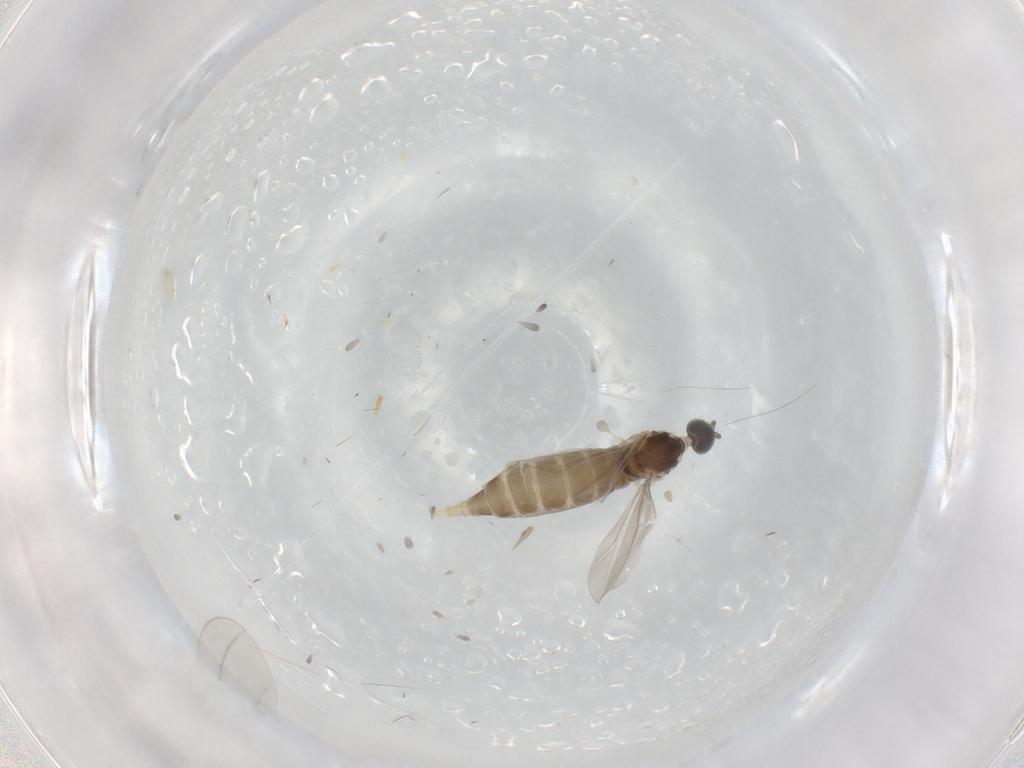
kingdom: Animalia
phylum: Arthropoda
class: Insecta
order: Diptera
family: Cecidomyiidae
